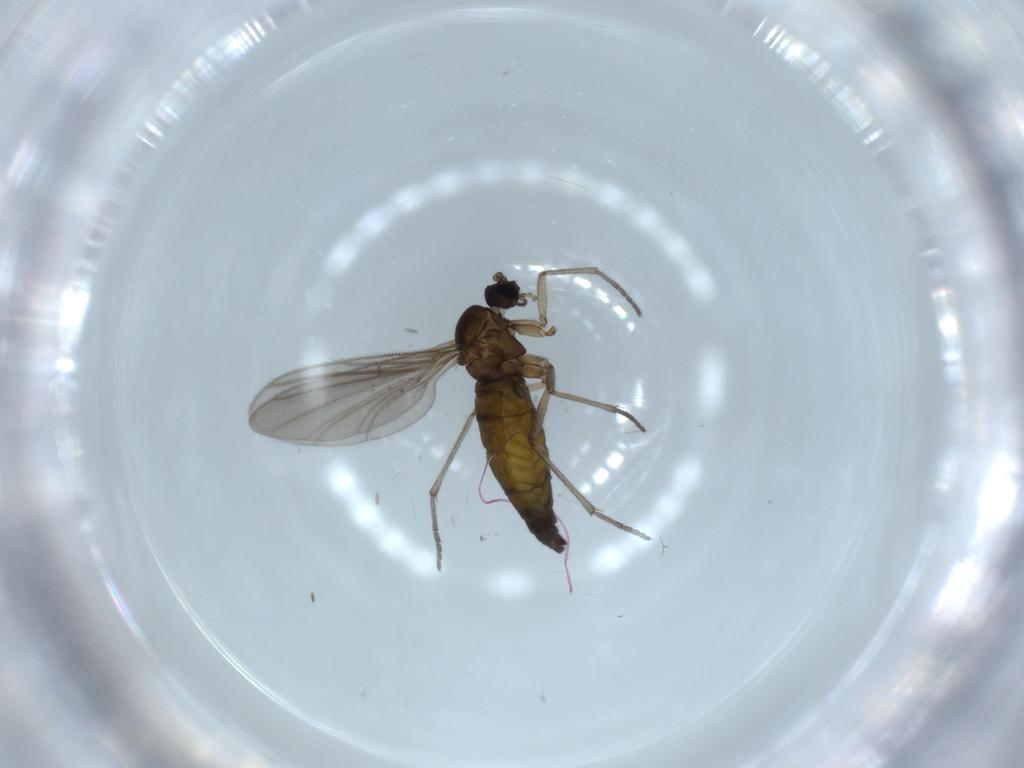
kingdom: Animalia
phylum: Arthropoda
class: Insecta
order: Diptera
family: Sciaridae
